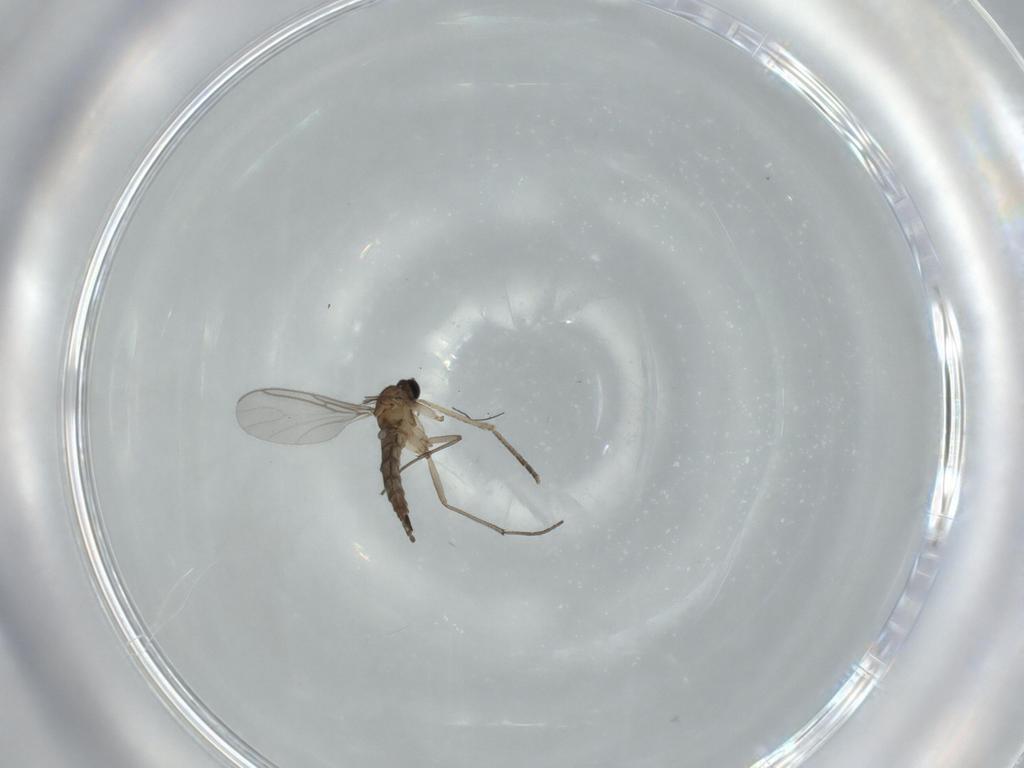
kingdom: Animalia
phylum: Arthropoda
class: Insecta
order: Diptera
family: Sciaridae
